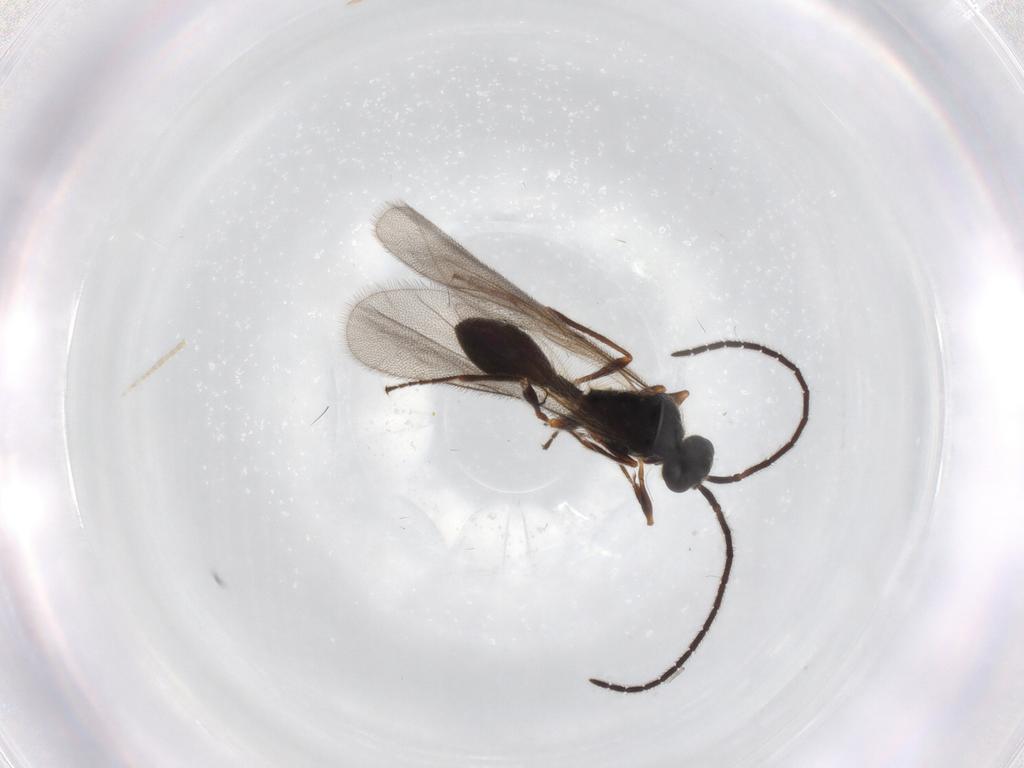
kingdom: Animalia
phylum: Arthropoda
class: Insecta
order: Hymenoptera
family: Diapriidae
